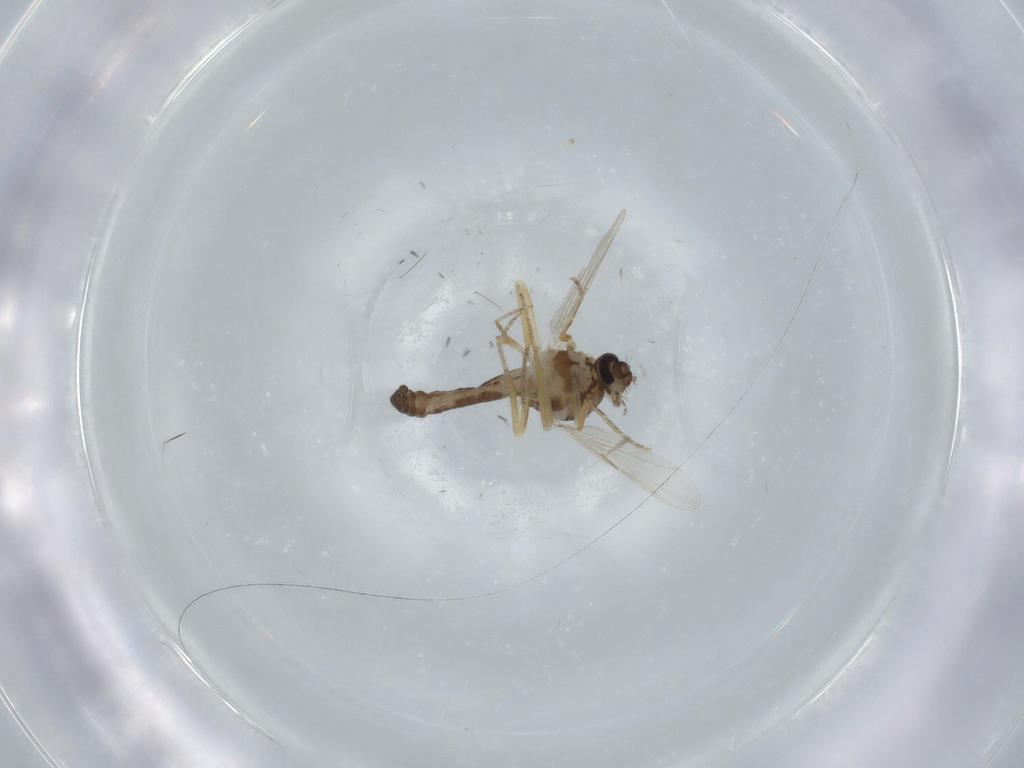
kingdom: Animalia
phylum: Arthropoda
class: Insecta
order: Diptera
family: Ceratopogonidae
